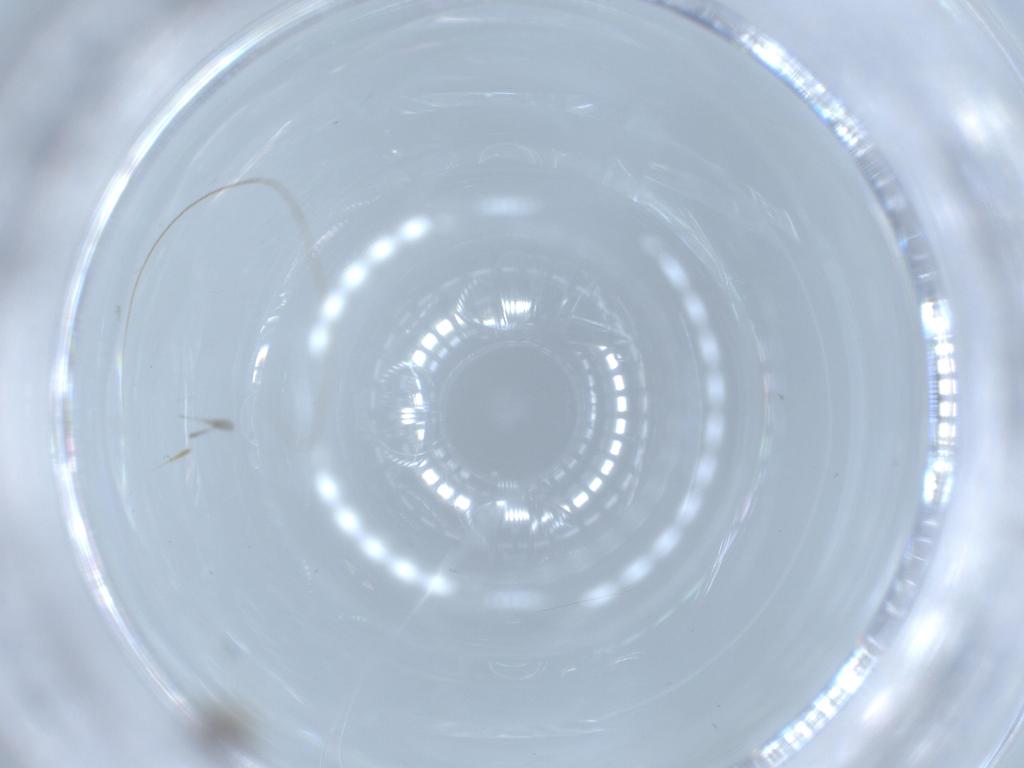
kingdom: Animalia
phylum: Arthropoda
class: Insecta
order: Diptera
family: Cecidomyiidae
